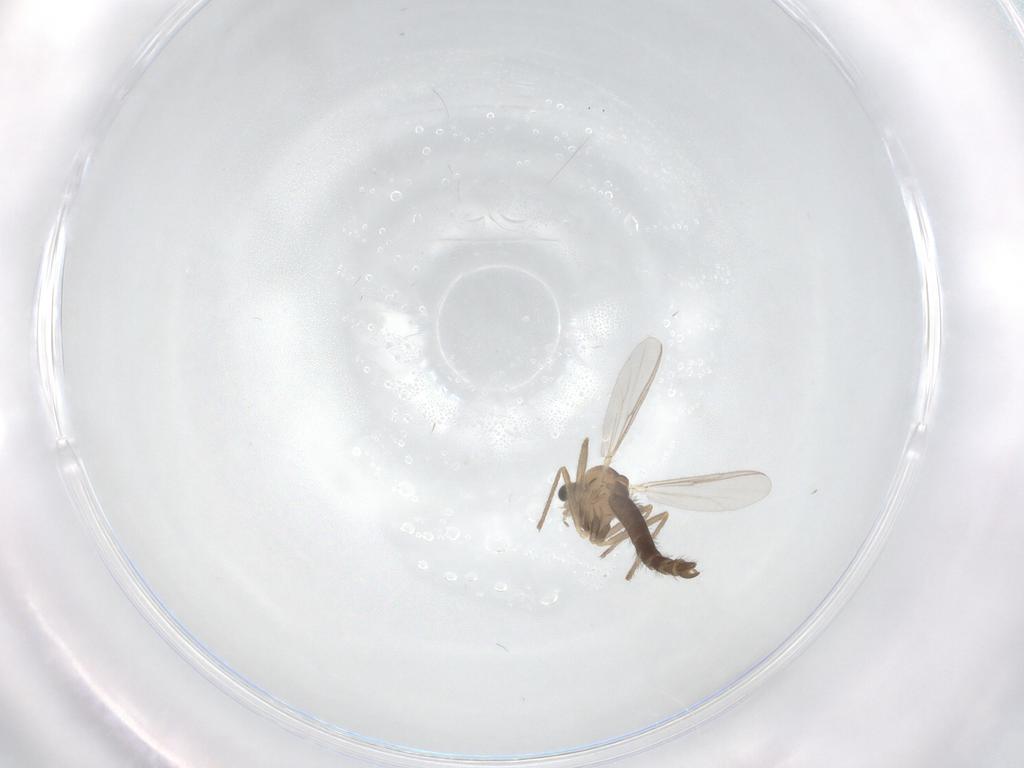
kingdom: Animalia
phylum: Arthropoda
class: Insecta
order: Diptera
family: Chironomidae
